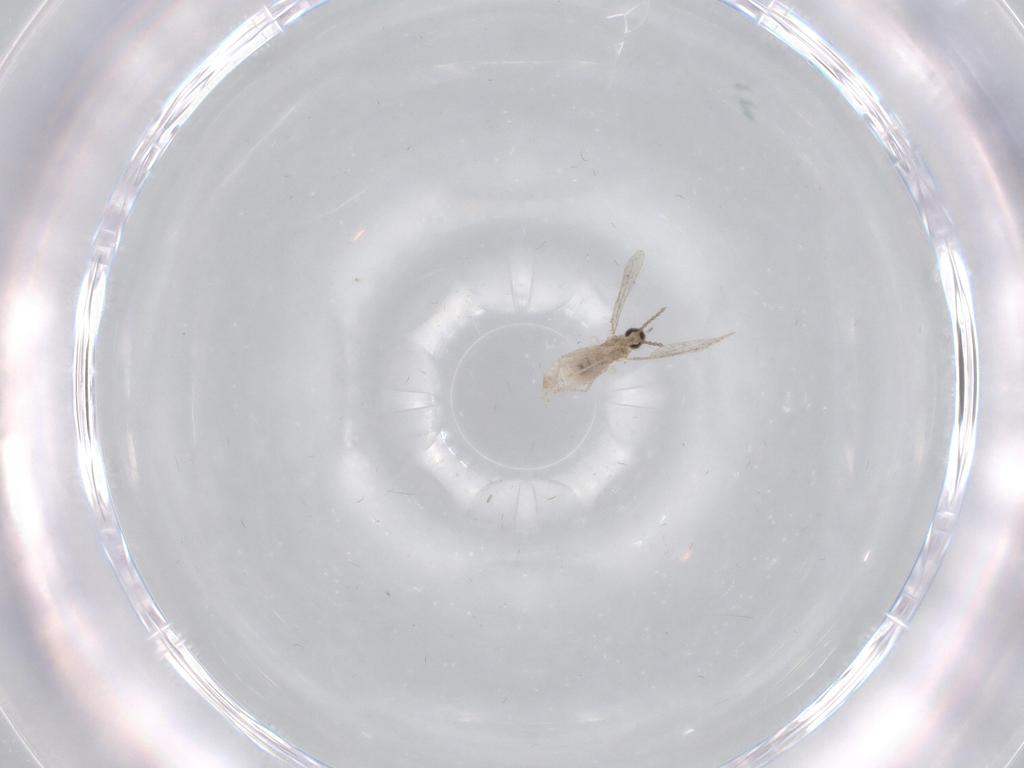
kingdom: Animalia
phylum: Arthropoda
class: Insecta
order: Diptera
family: Cecidomyiidae
